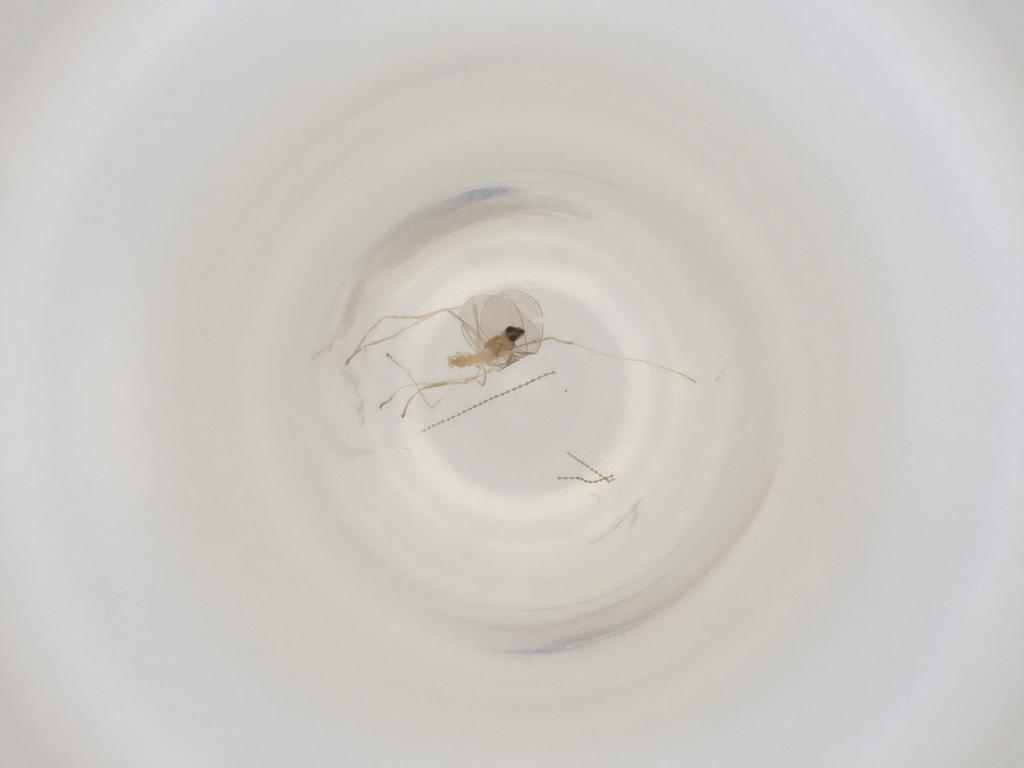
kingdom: Animalia
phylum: Arthropoda
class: Insecta
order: Diptera
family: Cecidomyiidae
